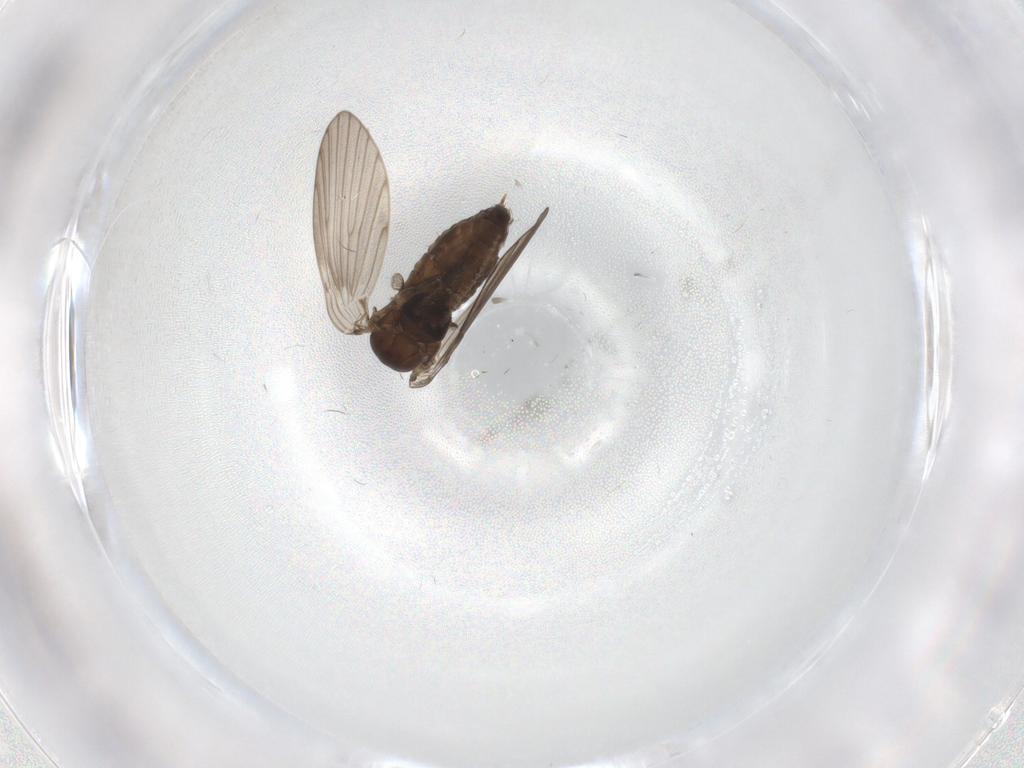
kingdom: Animalia
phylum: Arthropoda
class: Insecta
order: Diptera
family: Psychodidae
